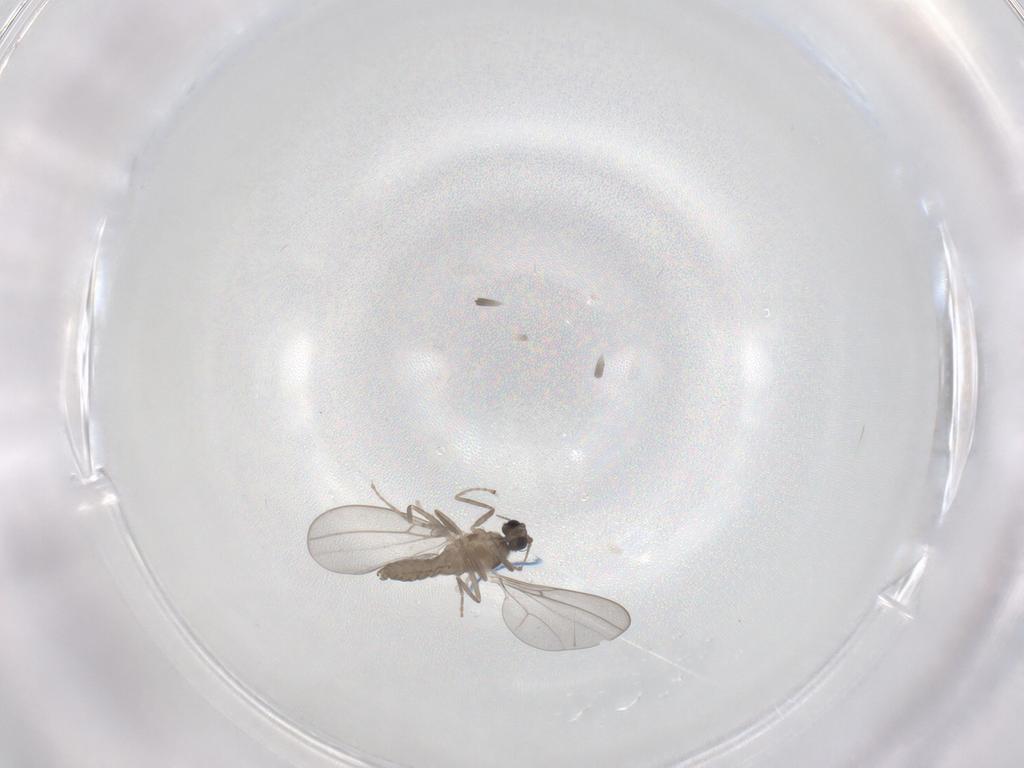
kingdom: Animalia
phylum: Arthropoda
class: Insecta
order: Diptera
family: Cecidomyiidae
